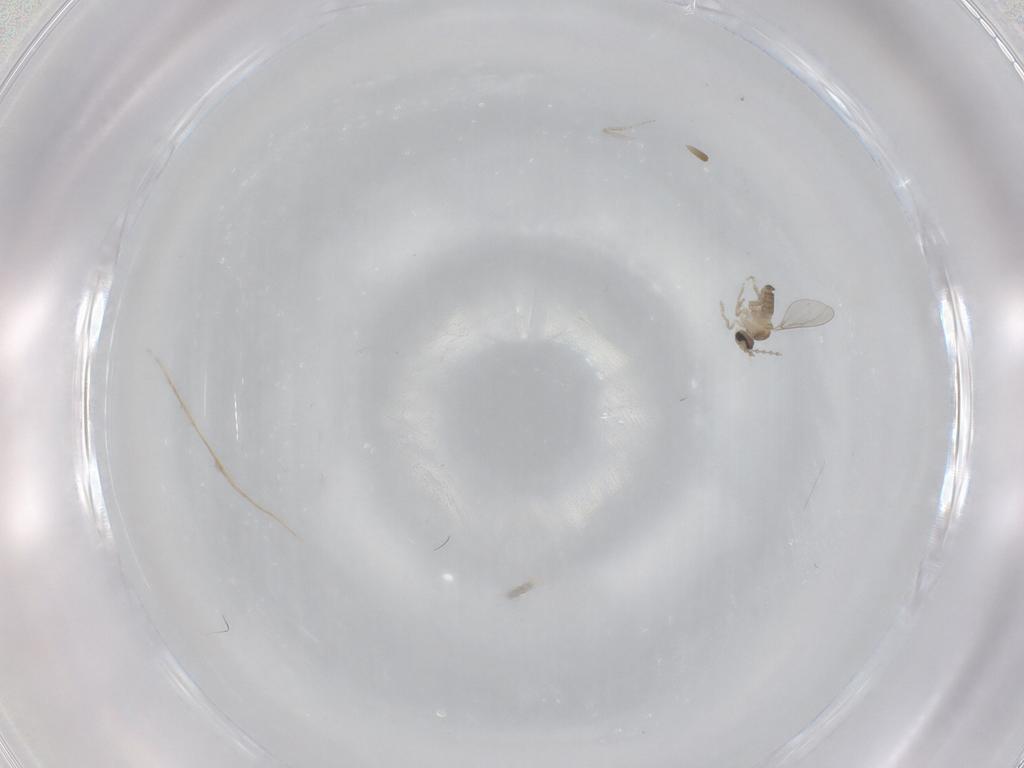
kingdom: Animalia
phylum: Arthropoda
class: Insecta
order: Diptera
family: Cecidomyiidae
